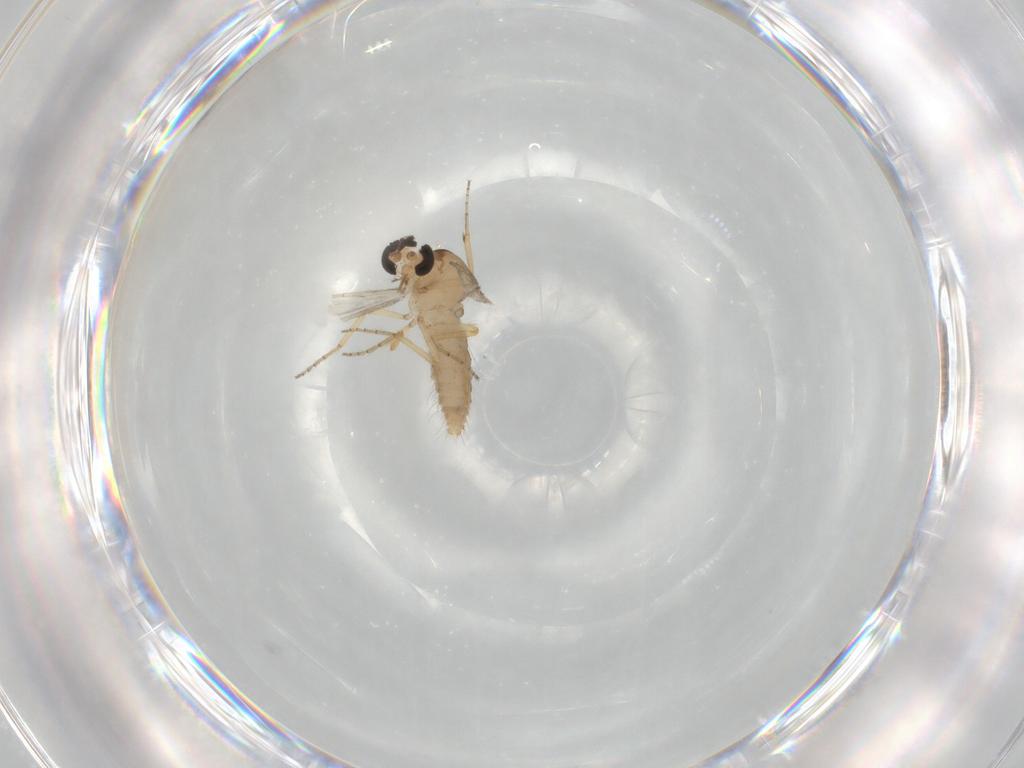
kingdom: Animalia
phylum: Arthropoda
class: Insecta
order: Diptera
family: Ceratopogonidae
